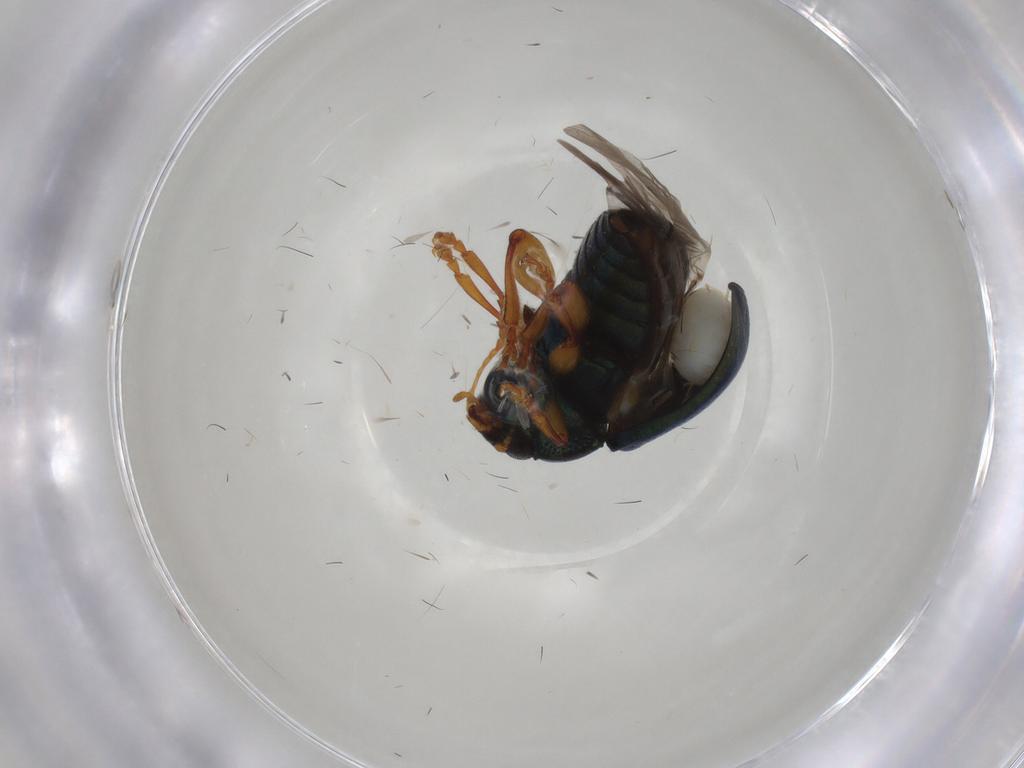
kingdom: Animalia
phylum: Arthropoda
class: Insecta
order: Coleoptera
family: Chrysomelidae
